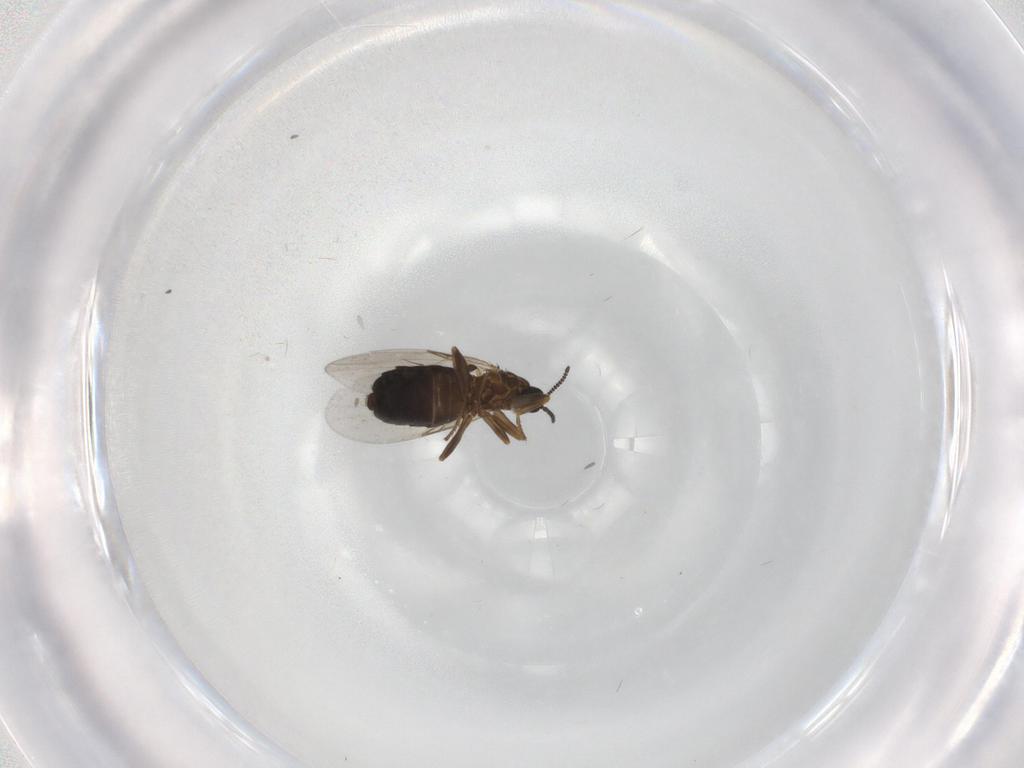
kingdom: Animalia
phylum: Arthropoda
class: Insecta
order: Diptera
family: Scatopsidae
